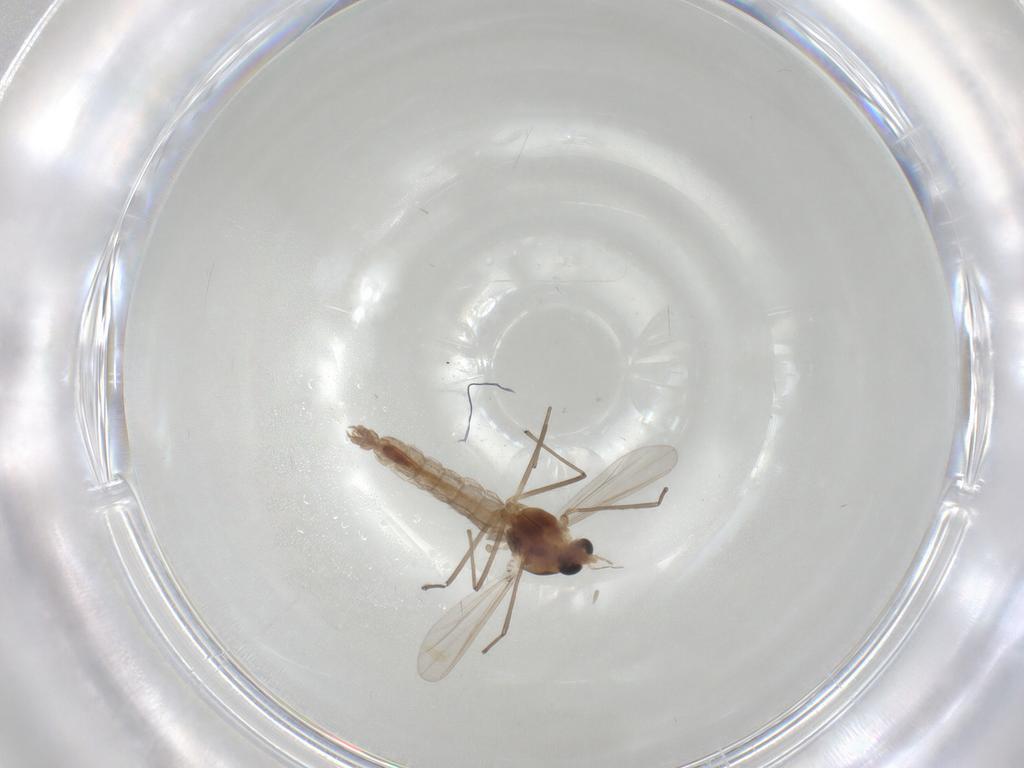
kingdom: Animalia
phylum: Arthropoda
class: Insecta
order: Diptera
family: Chironomidae
